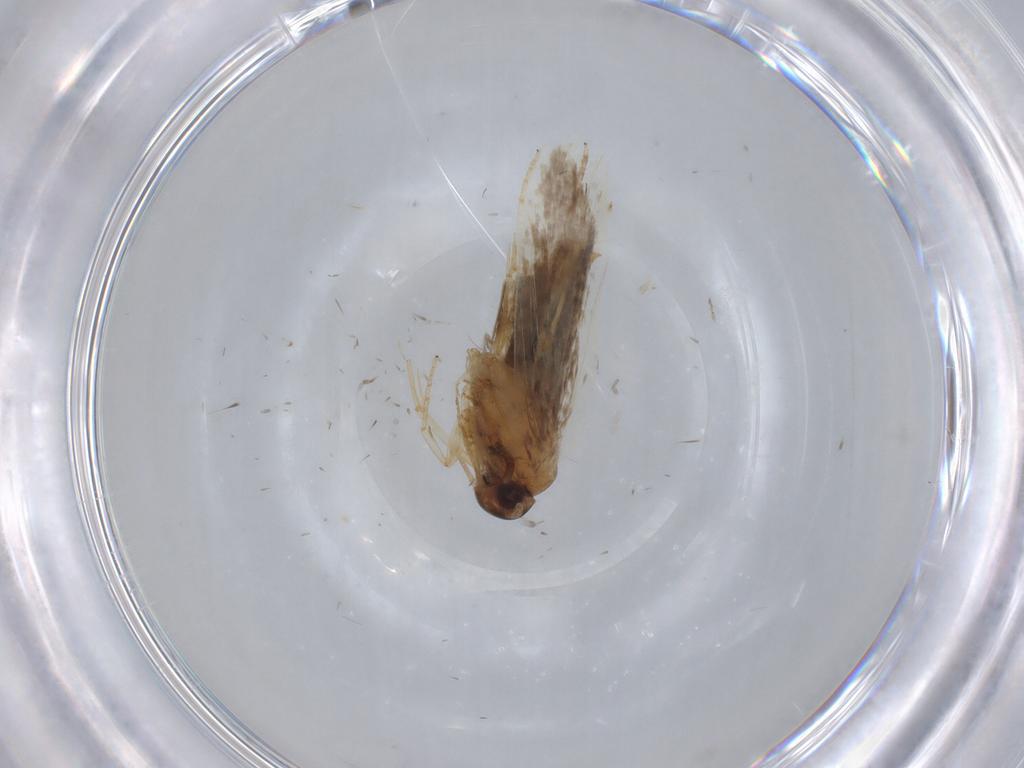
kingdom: Animalia
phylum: Arthropoda
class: Insecta
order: Lepidoptera
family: Oecophoridae
